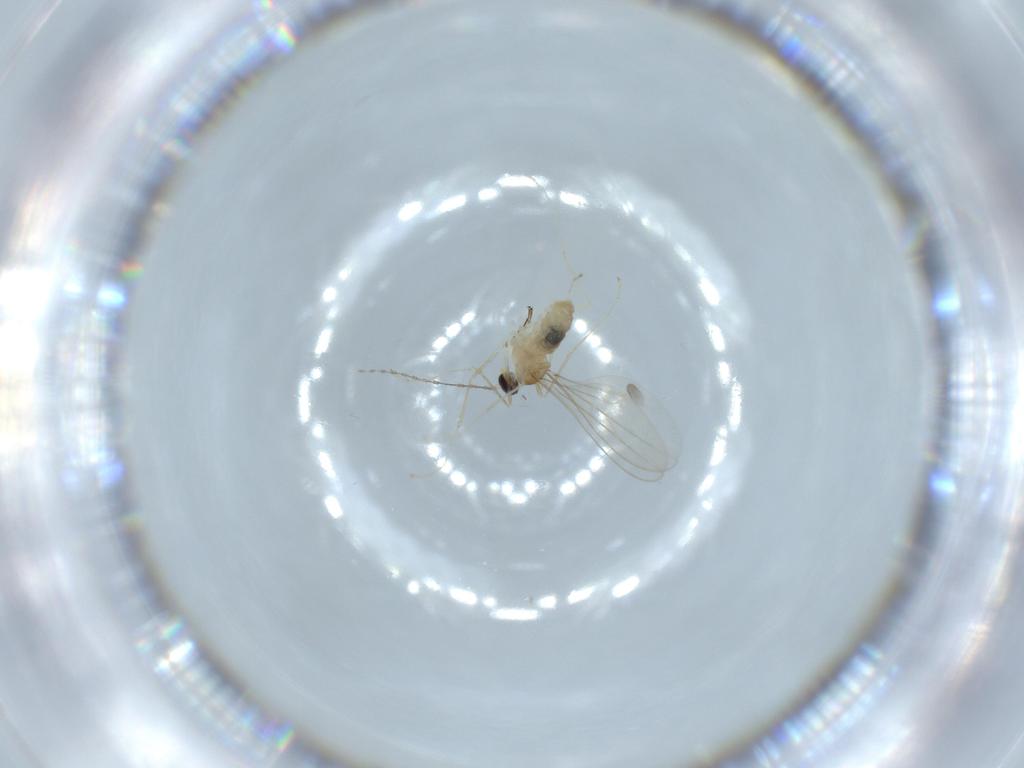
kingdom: Animalia
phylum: Arthropoda
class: Insecta
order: Diptera
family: Cecidomyiidae
